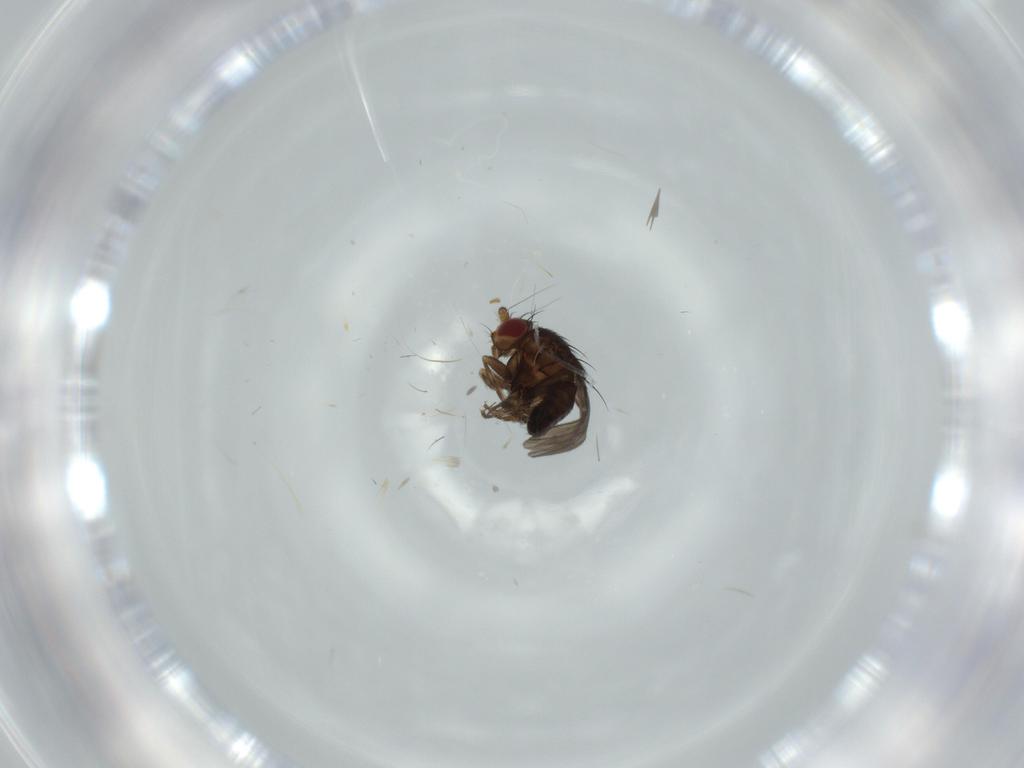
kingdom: Animalia
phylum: Arthropoda
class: Insecta
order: Diptera
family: Sphaeroceridae
